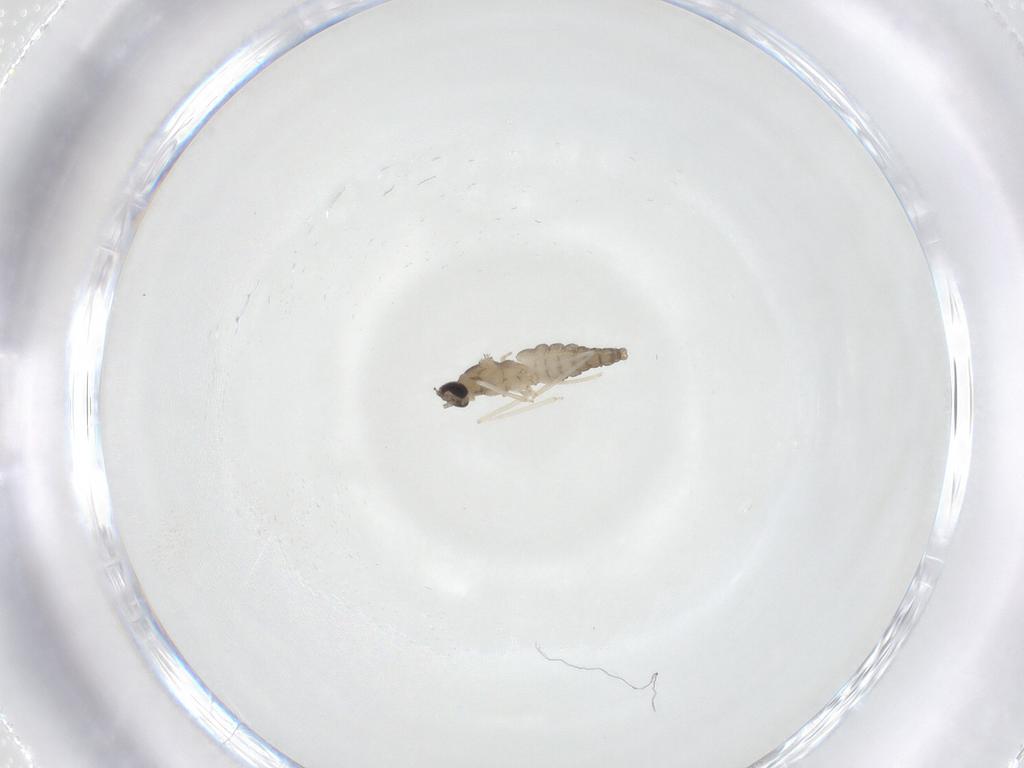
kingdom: Animalia
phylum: Arthropoda
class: Insecta
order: Diptera
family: Cecidomyiidae
